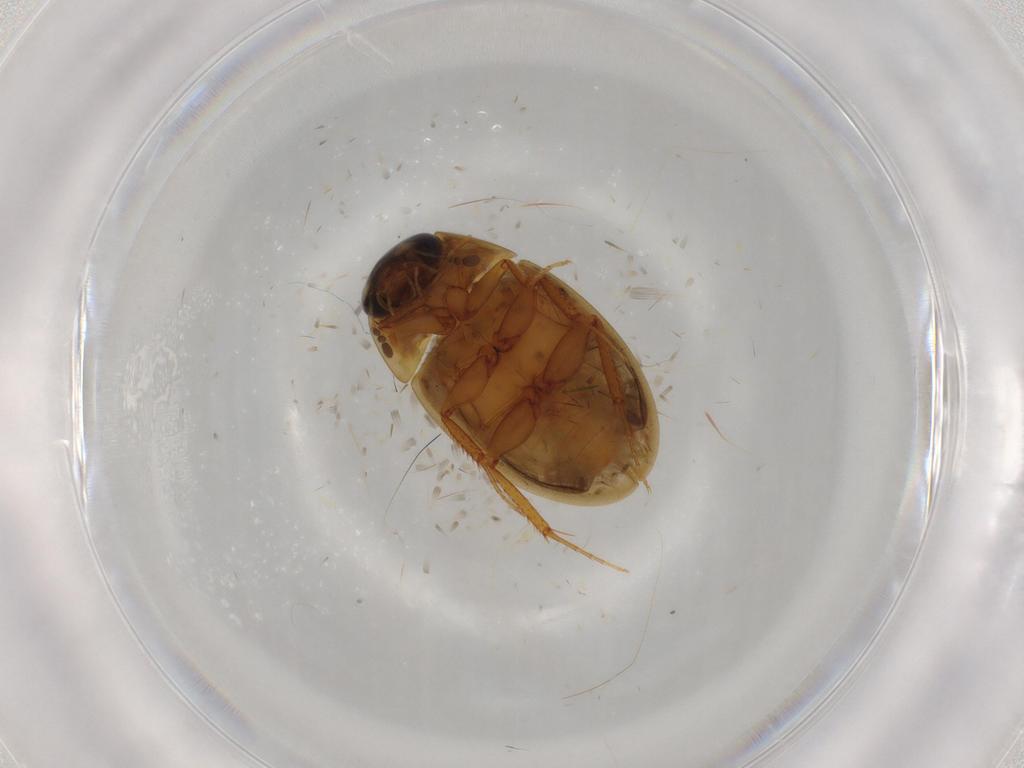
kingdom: Animalia
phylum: Arthropoda
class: Insecta
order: Coleoptera
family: Hydrophilidae
